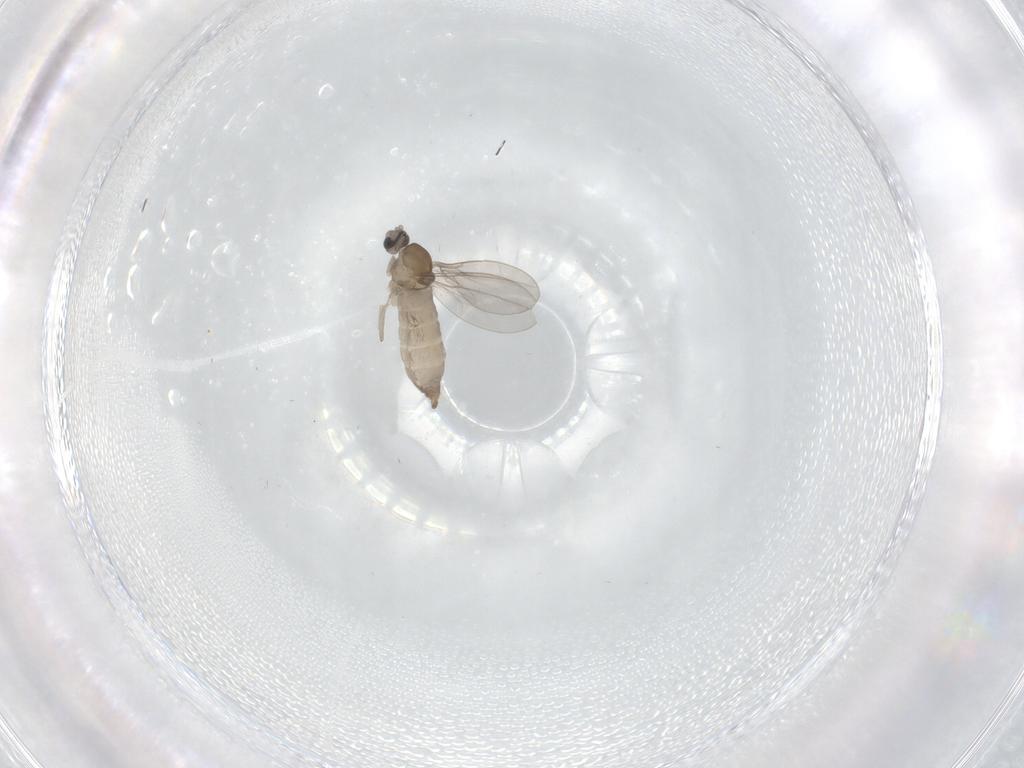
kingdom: Animalia
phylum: Arthropoda
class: Insecta
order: Diptera
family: Cecidomyiidae
